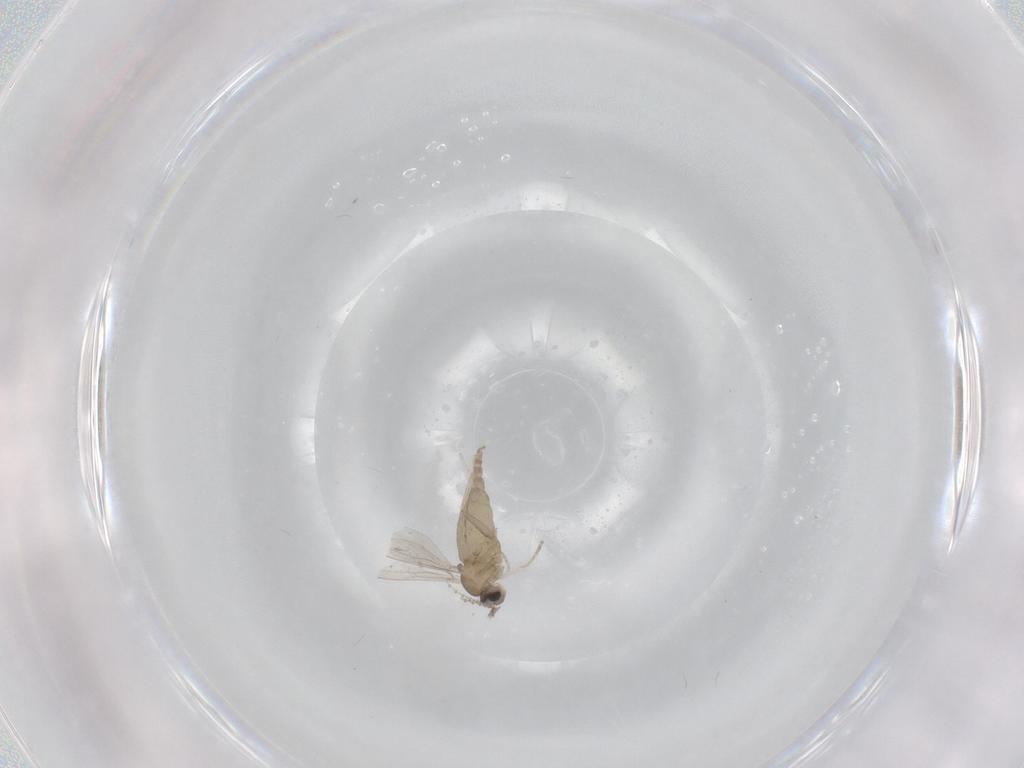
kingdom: Animalia
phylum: Arthropoda
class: Insecta
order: Diptera
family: Cecidomyiidae
